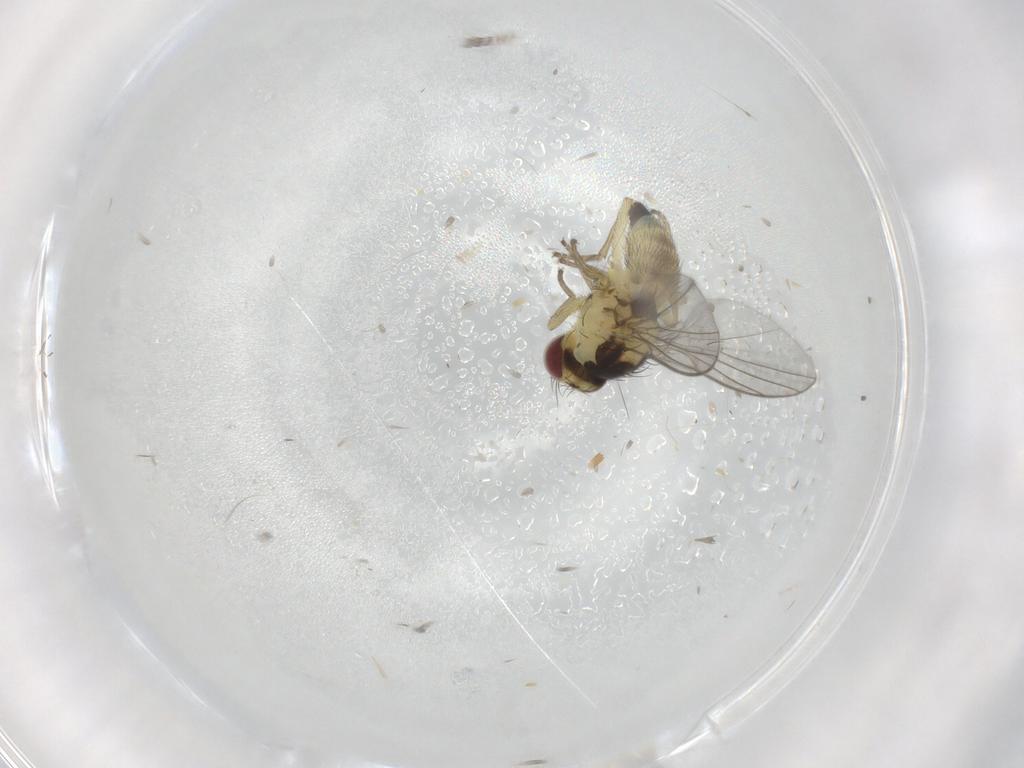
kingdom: Animalia
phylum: Arthropoda
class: Insecta
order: Diptera
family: Agromyzidae
